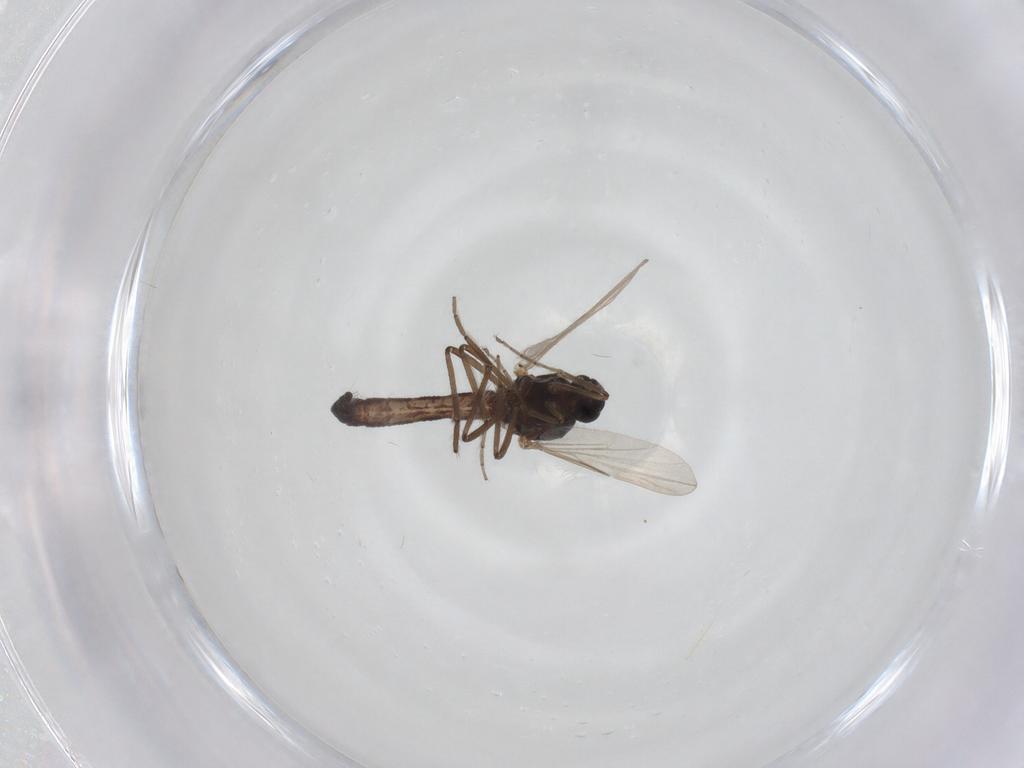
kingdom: Animalia
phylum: Arthropoda
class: Insecta
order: Diptera
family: Ceratopogonidae
